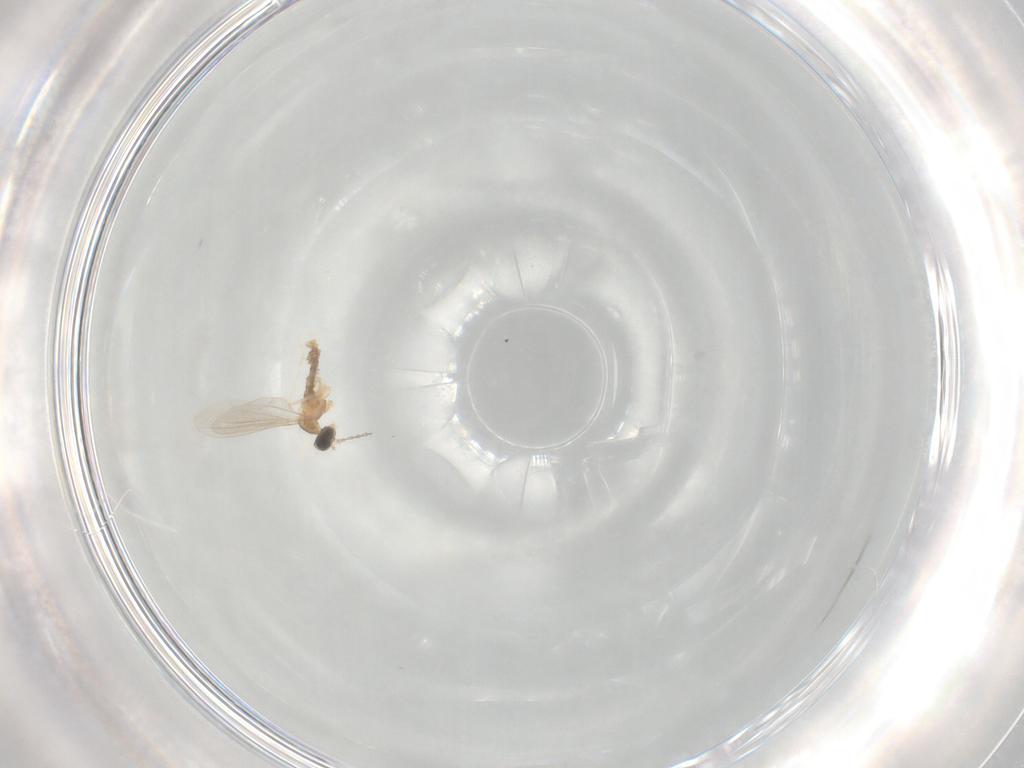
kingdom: Animalia
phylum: Arthropoda
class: Insecta
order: Diptera
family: Cecidomyiidae
